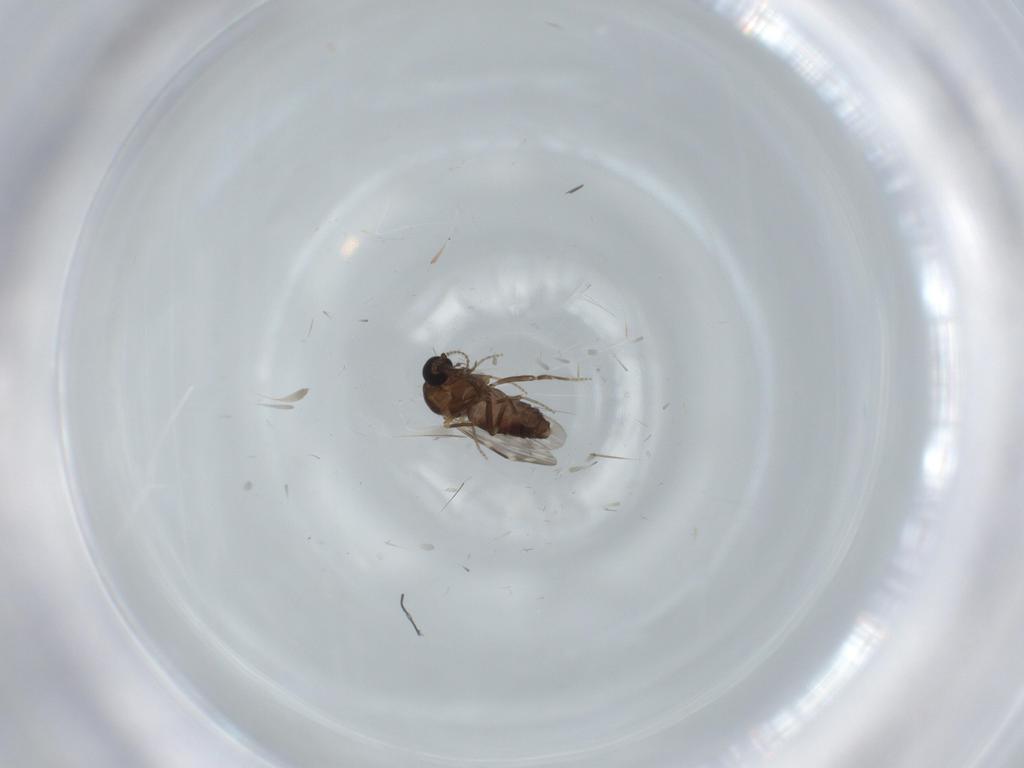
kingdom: Animalia
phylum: Arthropoda
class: Insecta
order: Diptera
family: Ceratopogonidae
